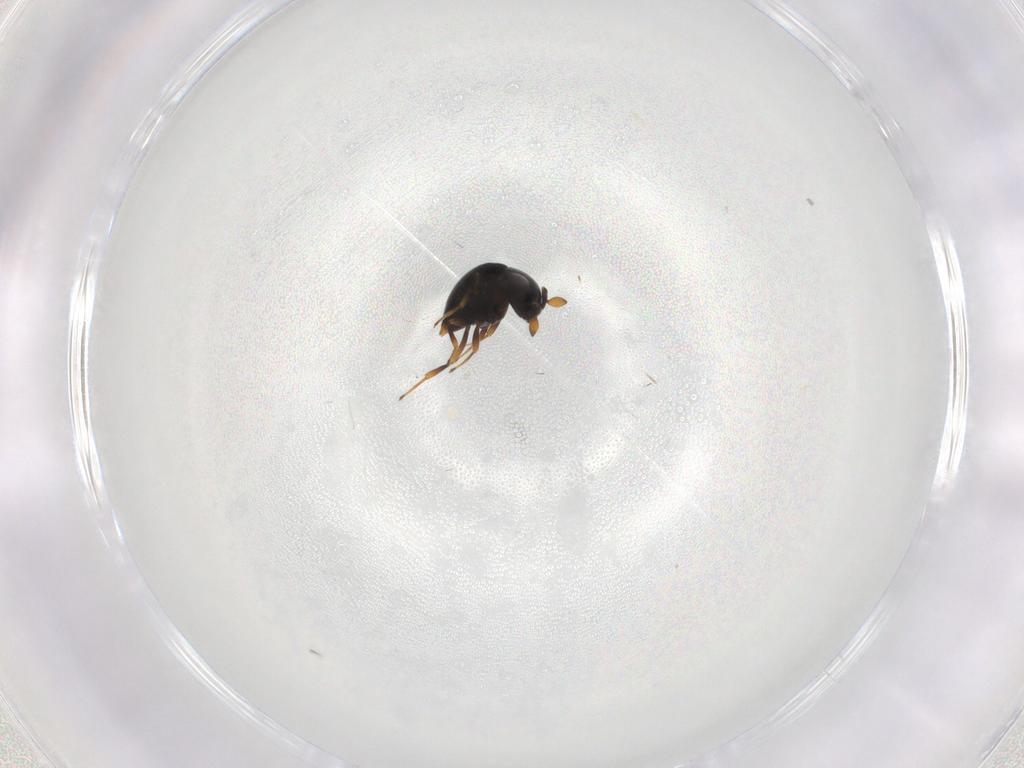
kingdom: Animalia
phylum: Arthropoda
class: Insecta
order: Hymenoptera
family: Scelionidae
